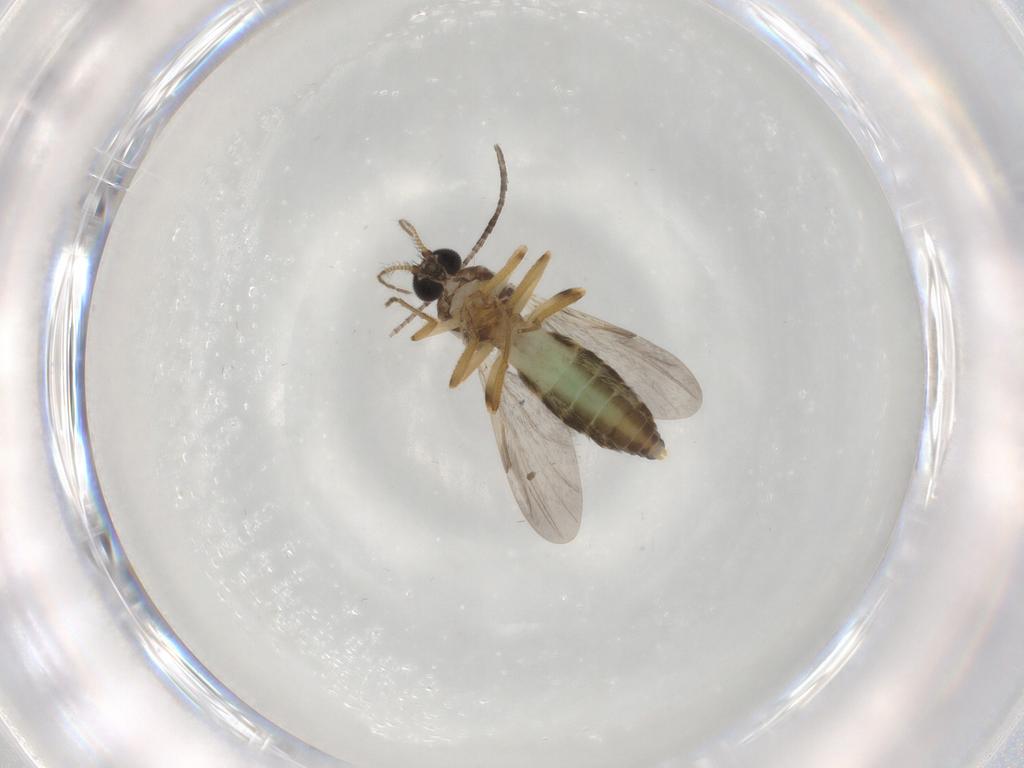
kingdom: Animalia
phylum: Arthropoda
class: Insecta
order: Diptera
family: Ceratopogonidae
